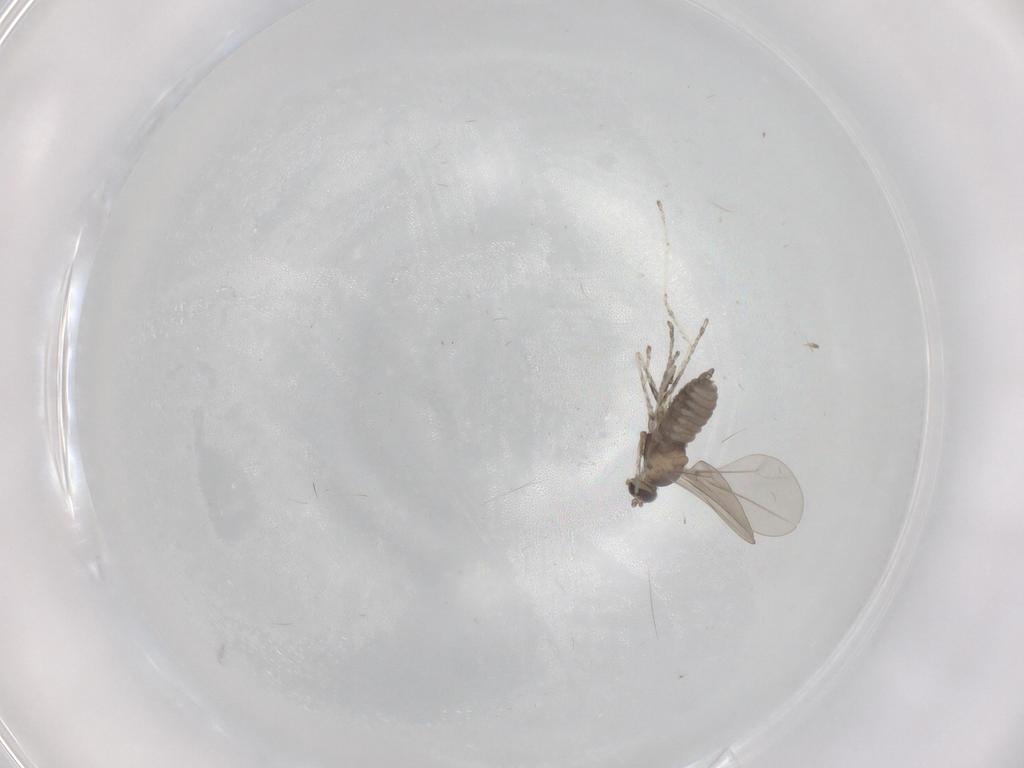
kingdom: Animalia
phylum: Arthropoda
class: Insecta
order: Diptera
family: Cecidomyiidae
